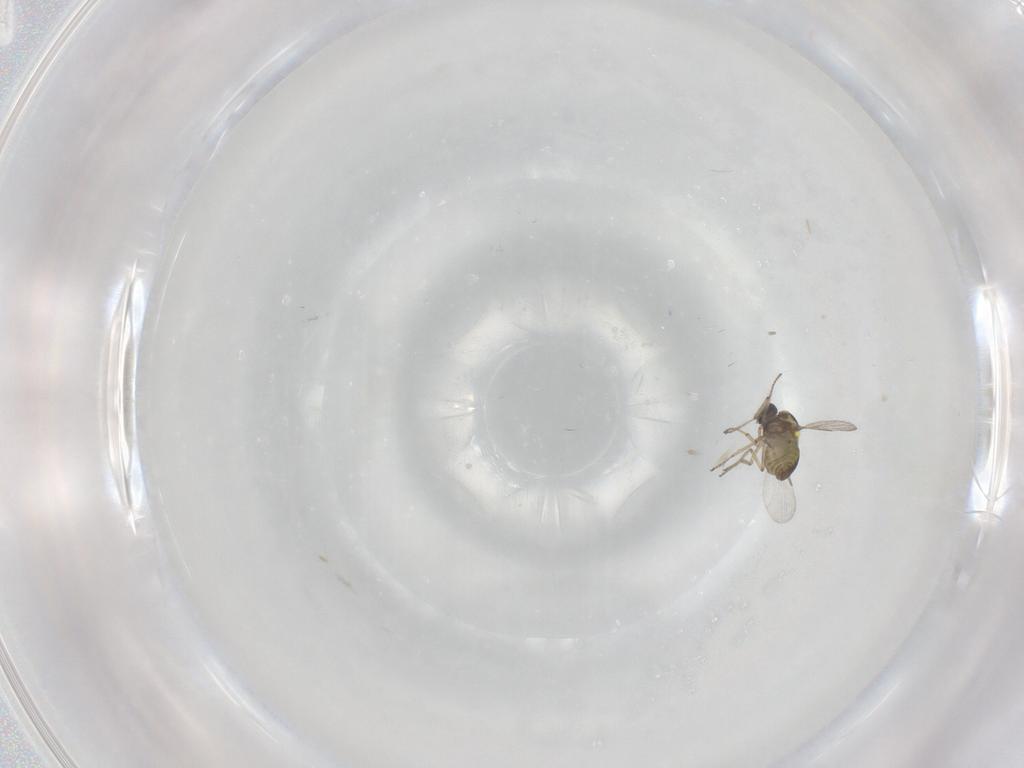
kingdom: Animalia
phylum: Arthropoda
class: Insecta
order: Diptera
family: Ceratopogonidae
